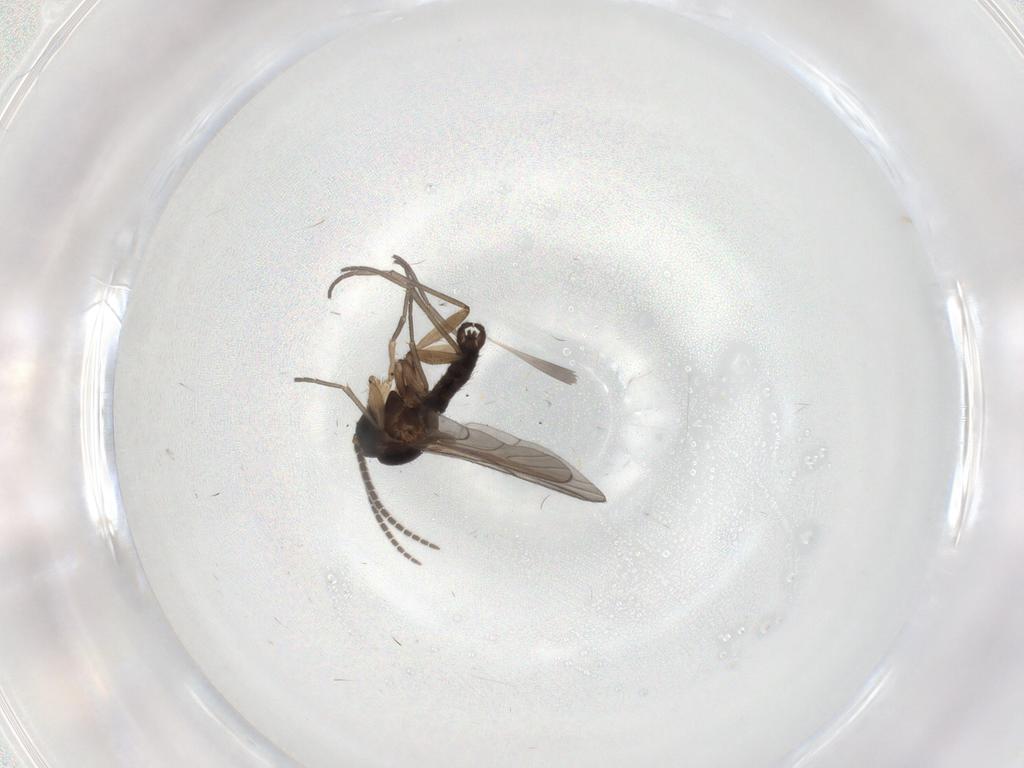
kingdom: Animalia
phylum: Arthropoda
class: Insecta
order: Diptera
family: Sciaridae
